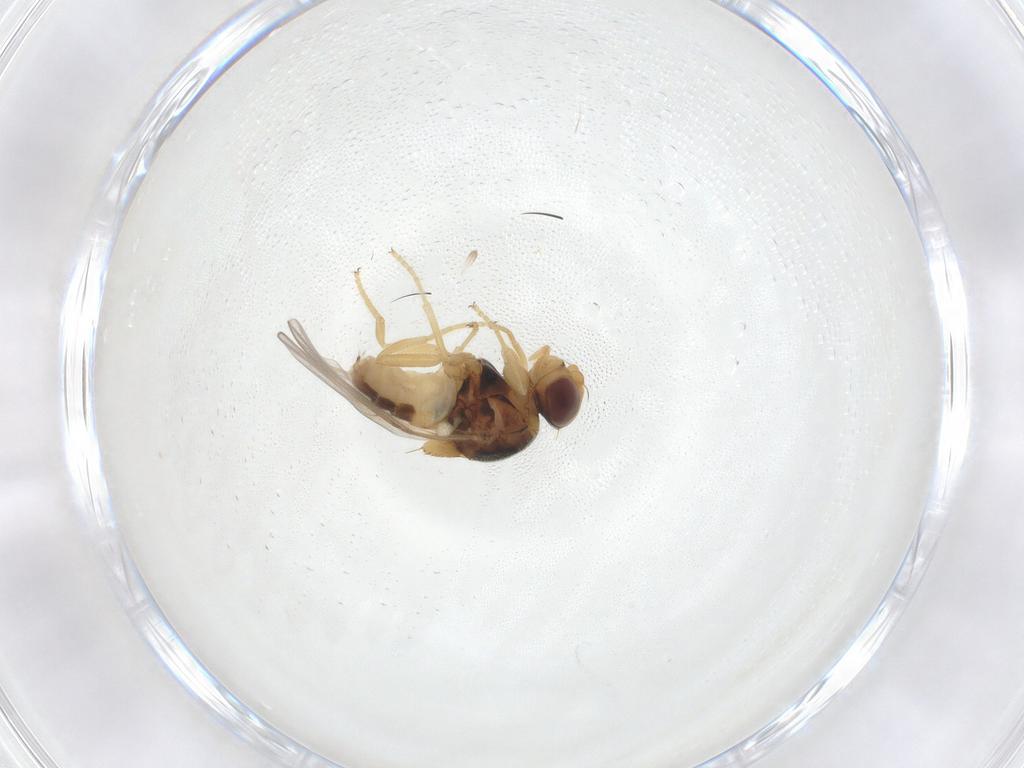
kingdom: Animalia
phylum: Arthropoda
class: Insecta
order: Diptera
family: Chloropidae
